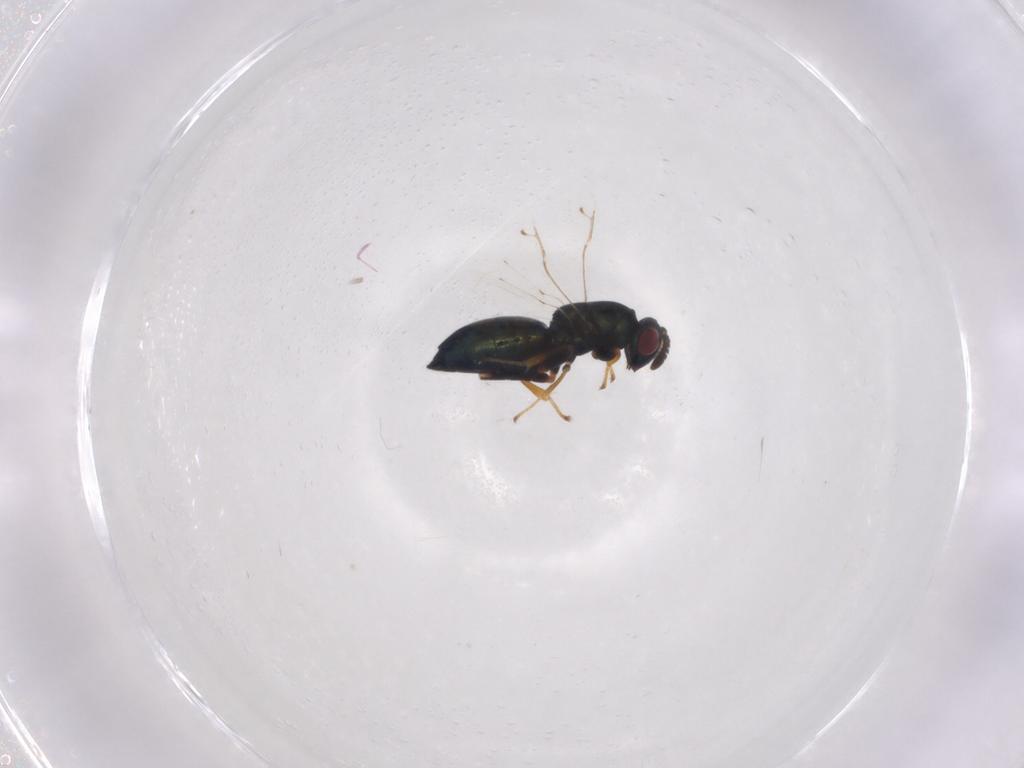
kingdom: Animalia
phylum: Arthropoda
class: Insecta
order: Hymenoptera
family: Pteromalidae
